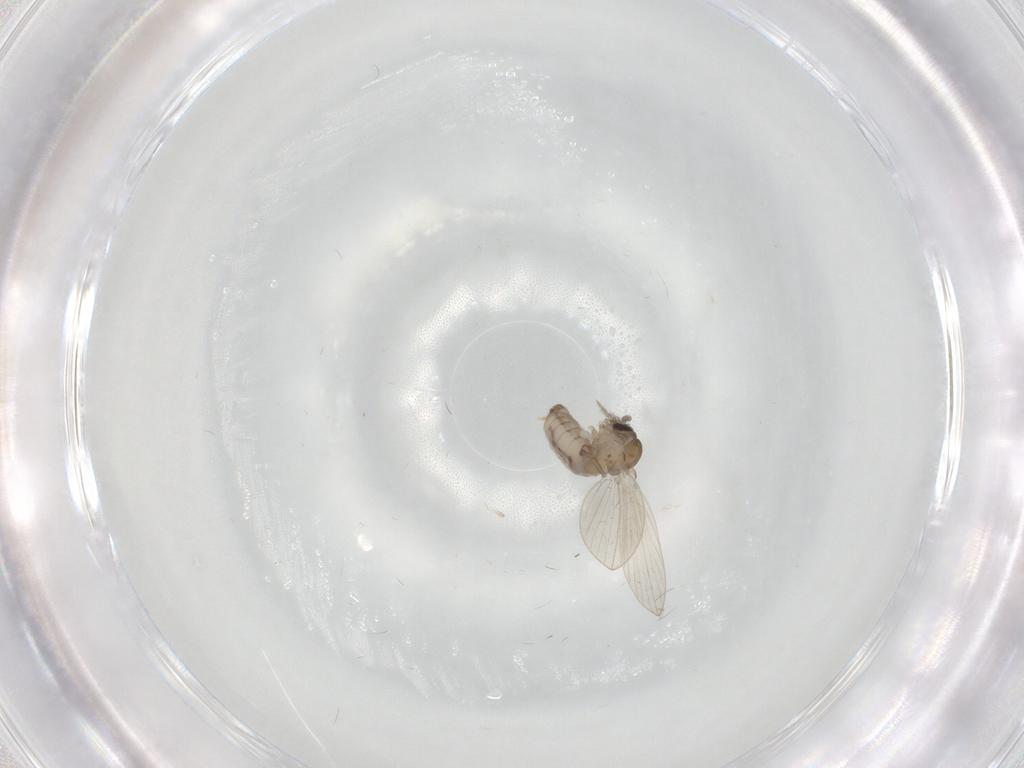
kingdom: Animalia
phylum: Arthropoda
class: Insecta
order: Diptera
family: Psychodidae
